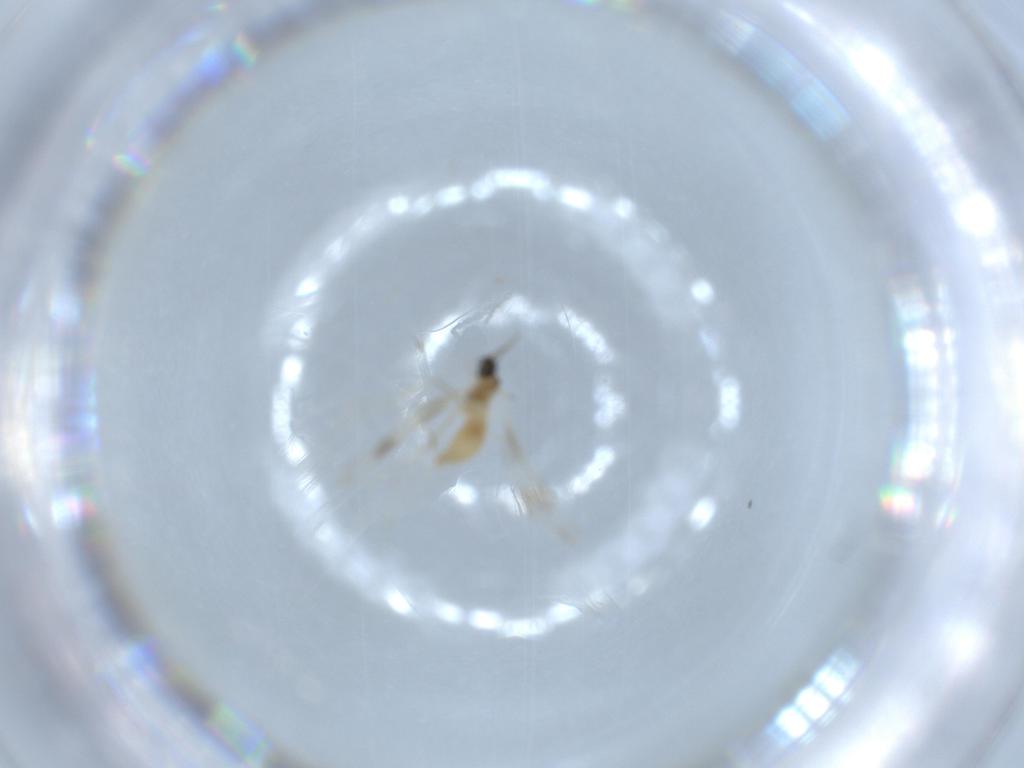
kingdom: Animalia
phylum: Arthropoda
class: Insecta
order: Diptera
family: Cecidomyiidae
